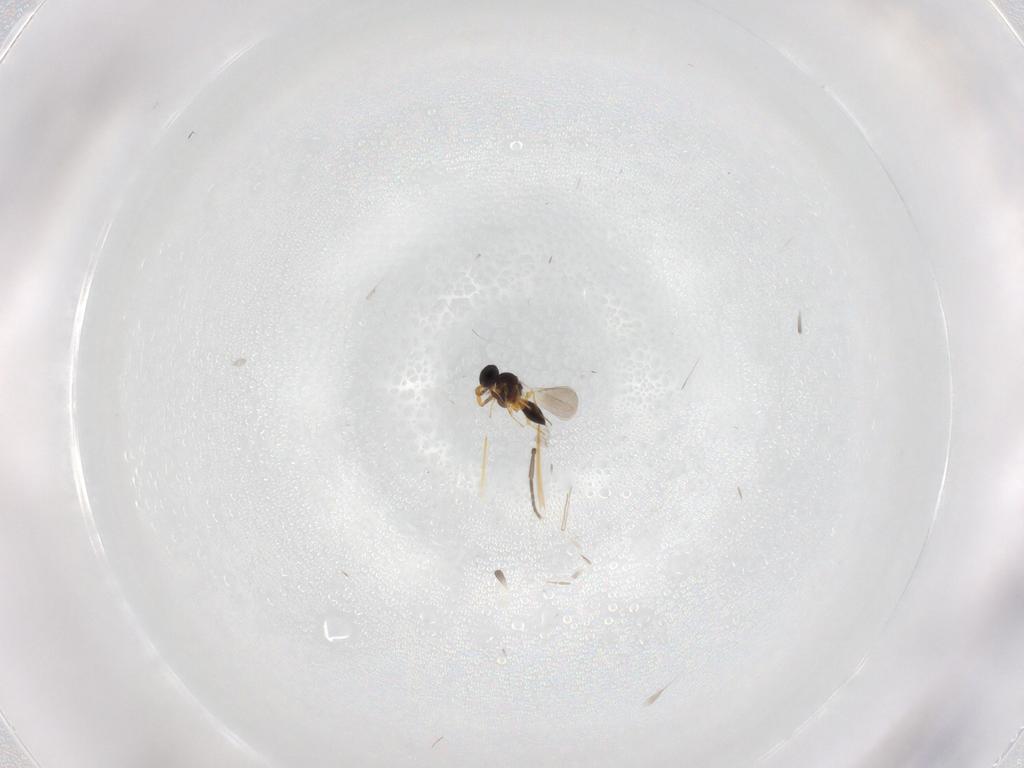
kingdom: Animalia
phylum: Arthropoda
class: Insecta
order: Hymenoptera
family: Platygastridae
